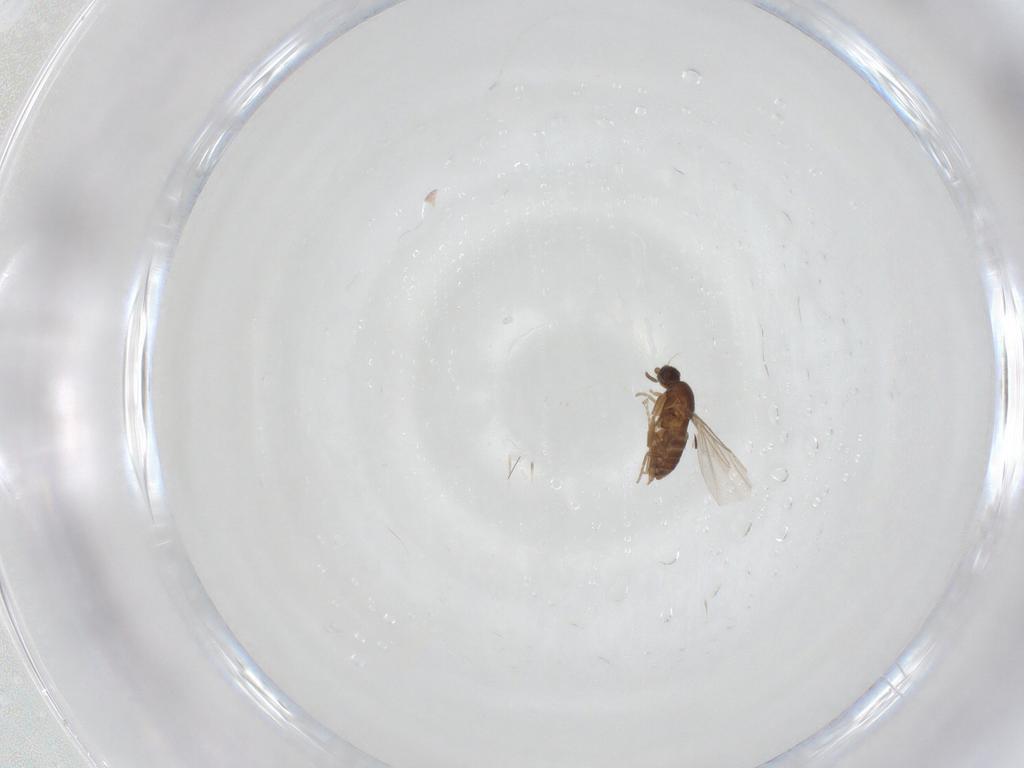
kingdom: Animalia
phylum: Arthropoda
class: Insecta
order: Diptera
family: Phoridae
